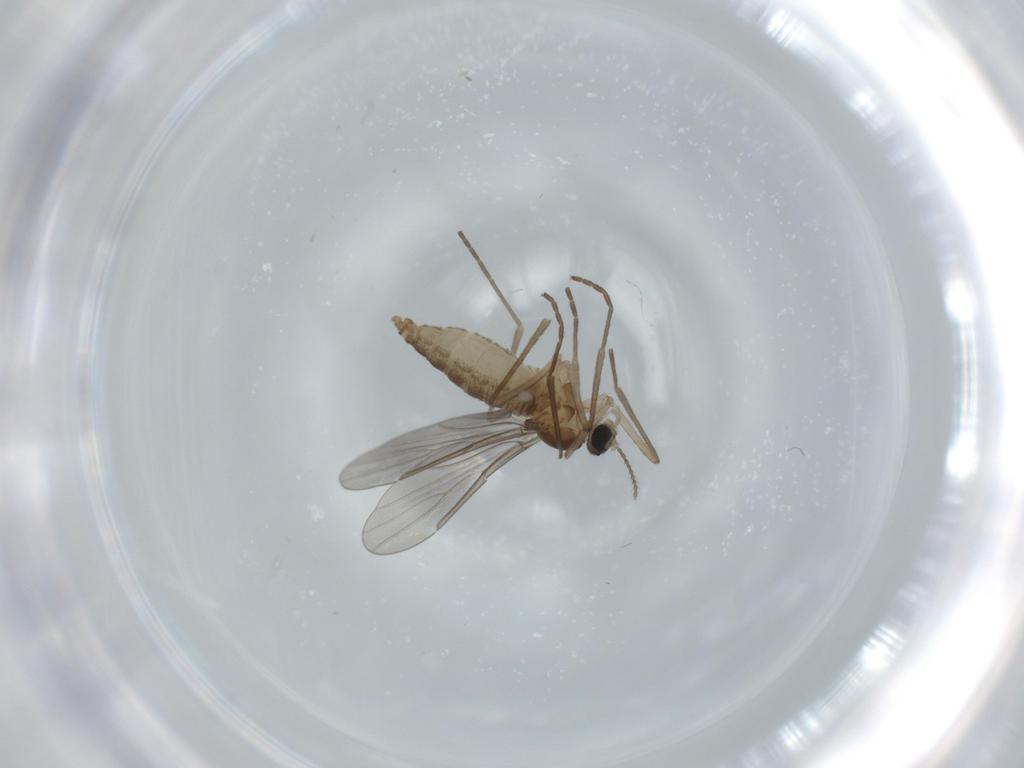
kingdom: Animalia
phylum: Arthropoda
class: Insecta
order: Diptera
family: Cecidomyiidae
